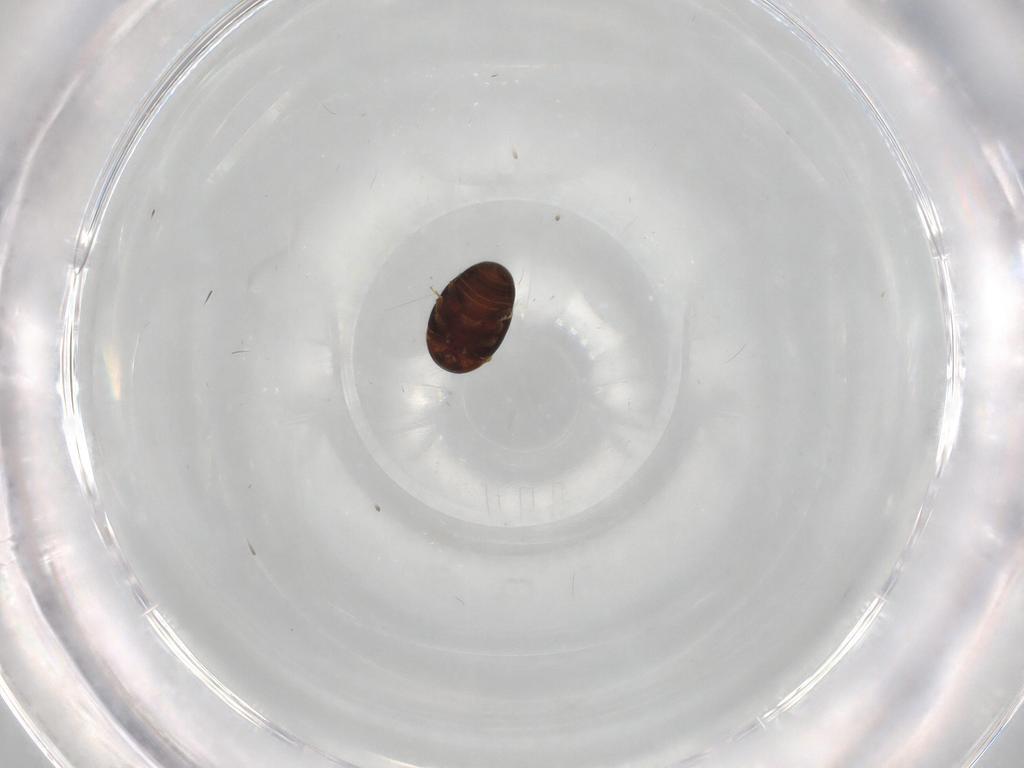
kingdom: Animalia
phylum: Arthropoda
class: Insecta
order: Coleoptera
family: Corylophidae
